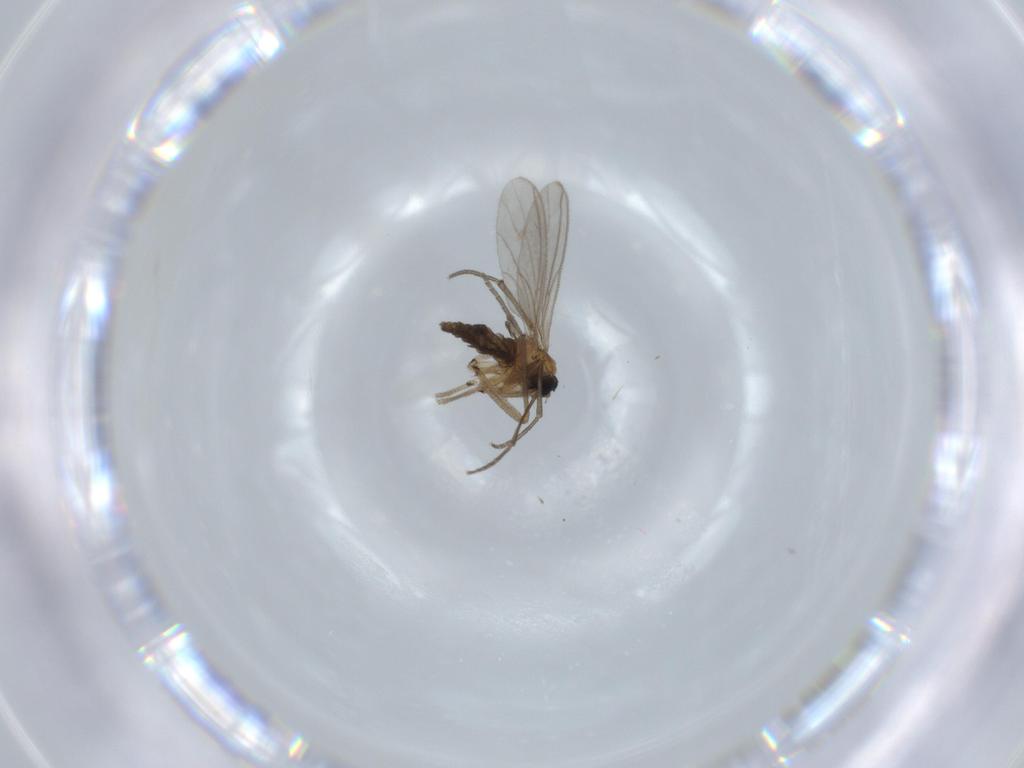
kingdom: Animalia
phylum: Arthropoda
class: Insecta
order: Diptera
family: Sciaridae
